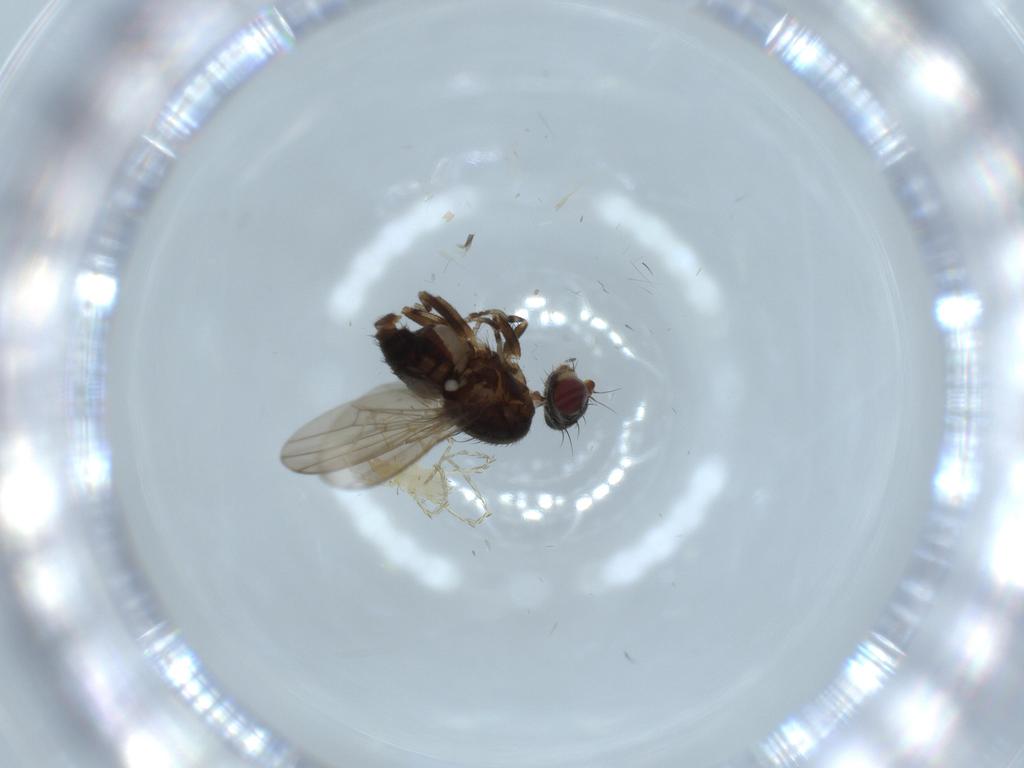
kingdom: Animalia
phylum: Arthropoda
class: Insecta
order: Diptera
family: Heleomyzidae
